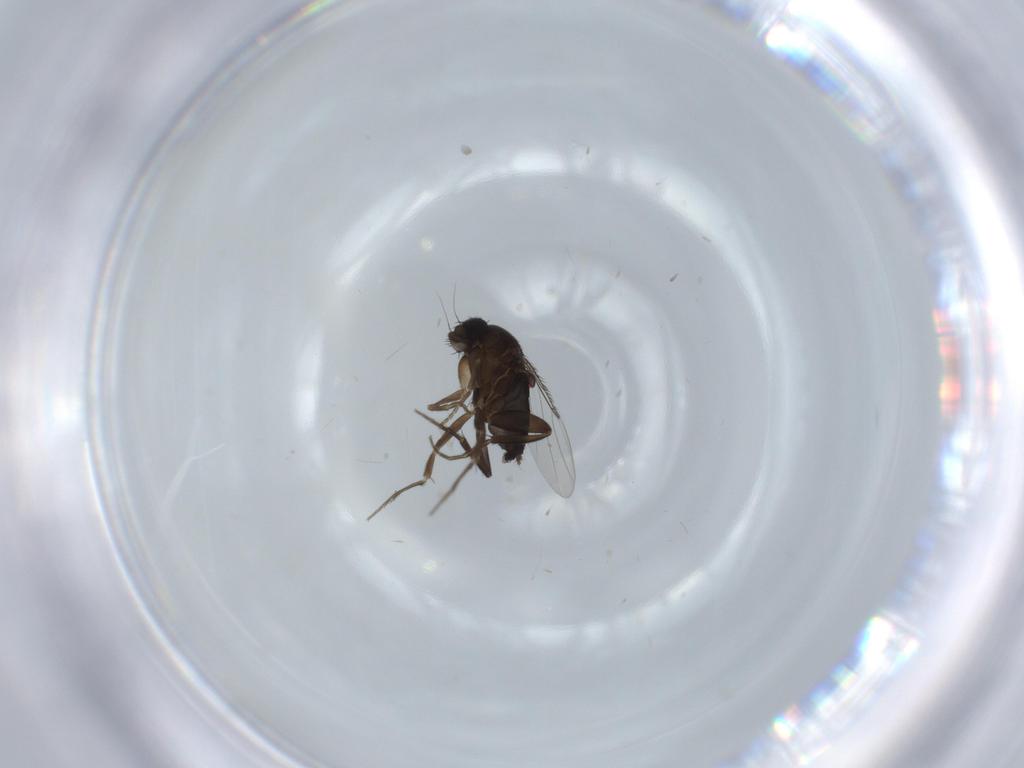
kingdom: Animalia
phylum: Arthropoda
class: Insecta
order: Diptera
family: Phoridae
